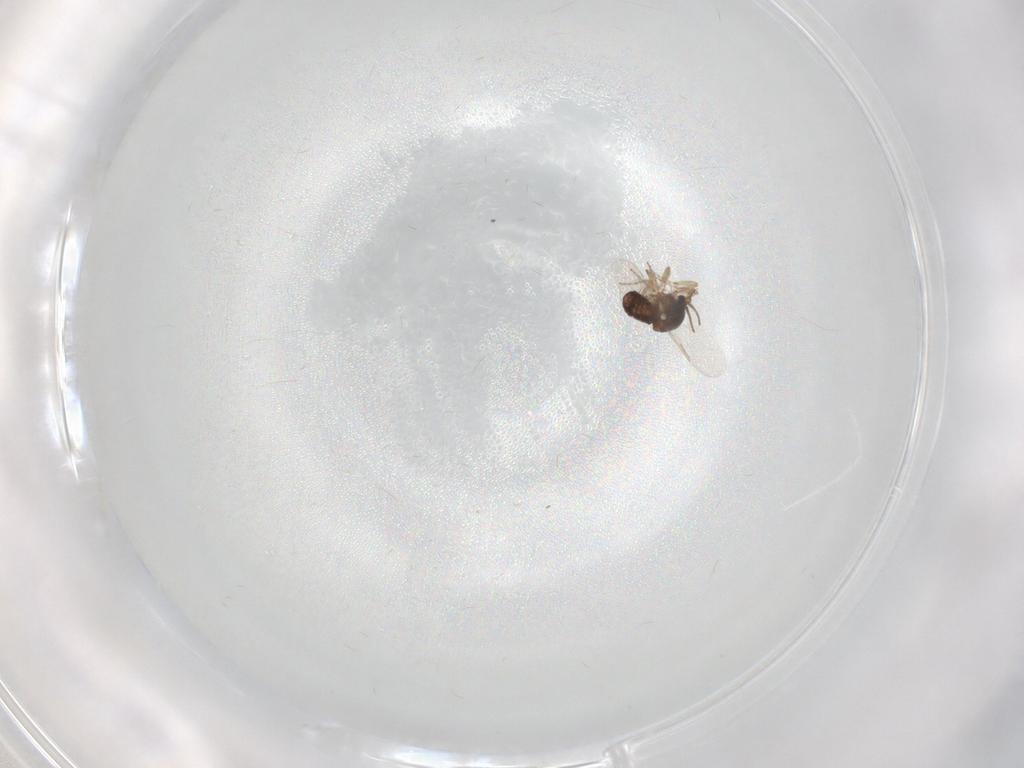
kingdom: Animalia
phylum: Arthropoda
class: Insecta
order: Diptera
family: Ceratopogonidae
